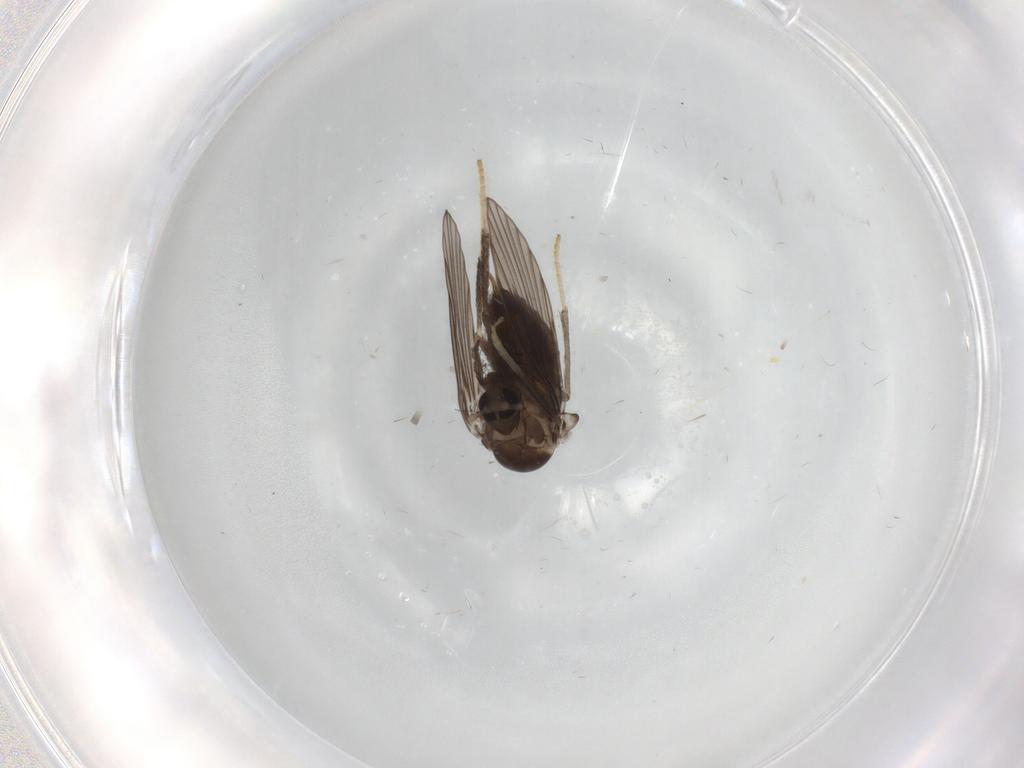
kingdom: Animalia
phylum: Arthropoda
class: Insecta
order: Diptera
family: Psychodidae
